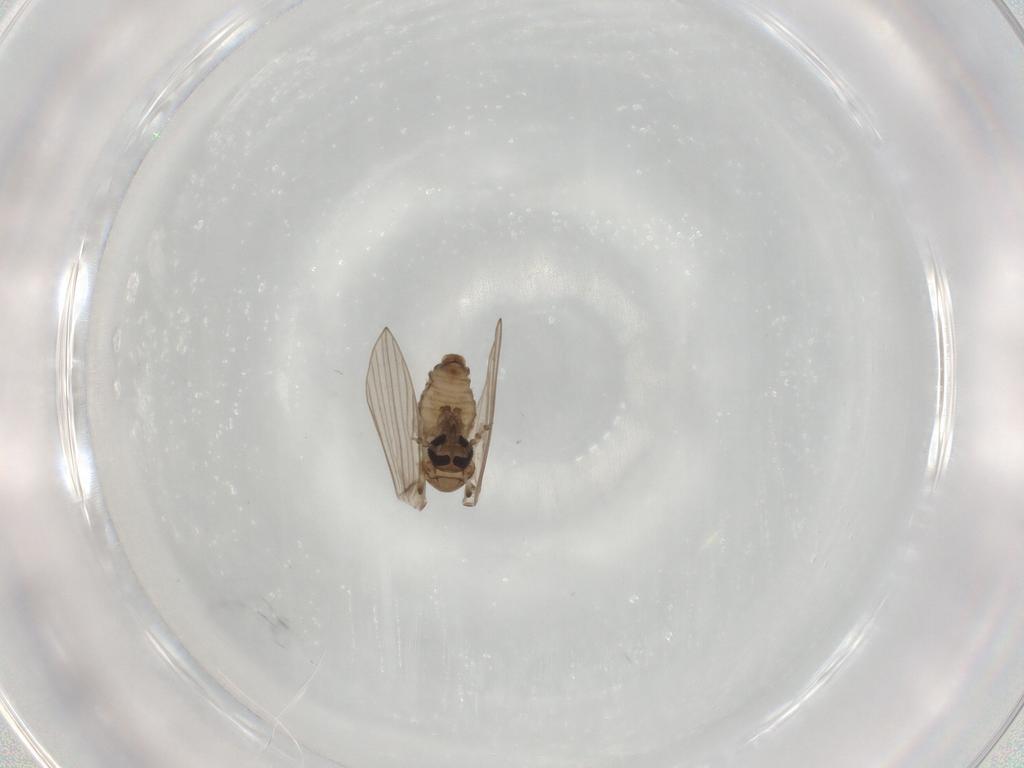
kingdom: Animalia
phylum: Arthropoda
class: Insecta
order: Diptera
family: Psychodidae
